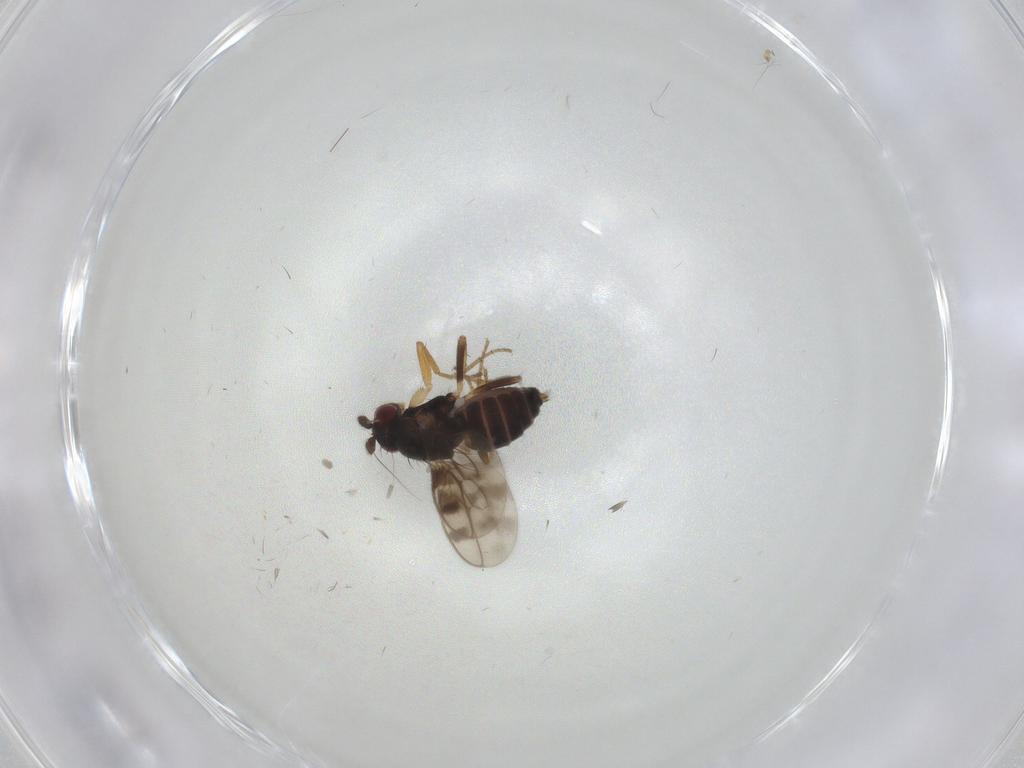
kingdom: Animalia
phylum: Arthropoda
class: Insecta
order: Diptera
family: Sphaeroceridae
